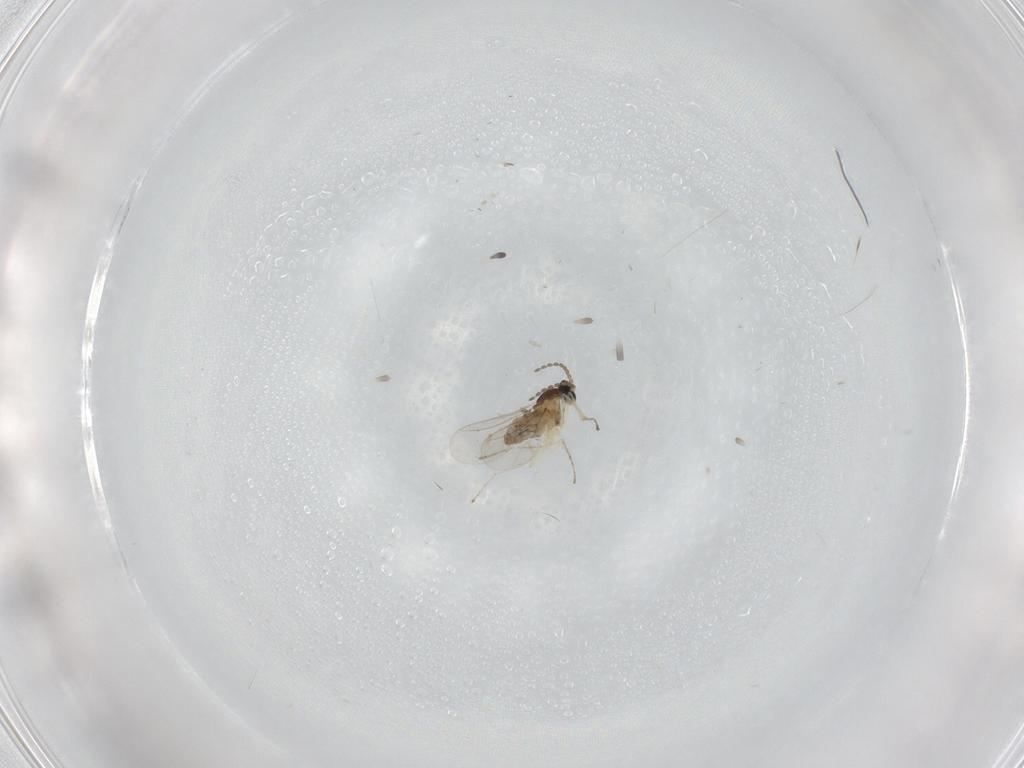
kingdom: Animalia
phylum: Arthropoda
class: Insecta
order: Diptera
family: Cecidomyiidae
